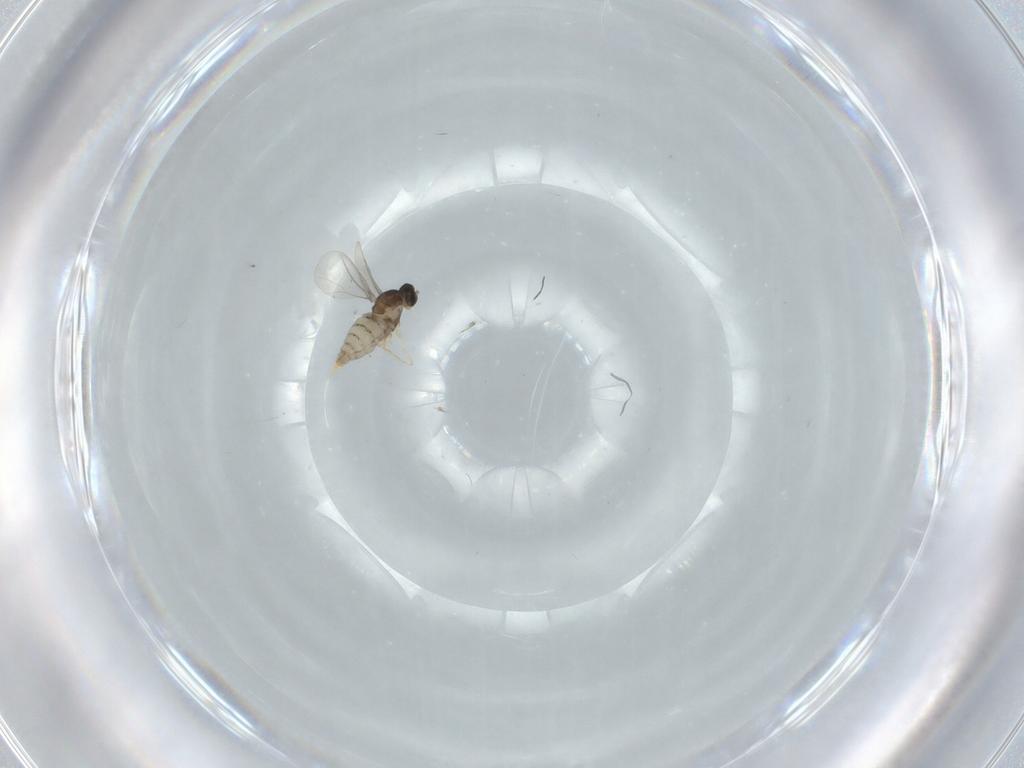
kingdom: Animalia
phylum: Arthropoda
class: Insecta
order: Diptera
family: Cecidomyiidae
